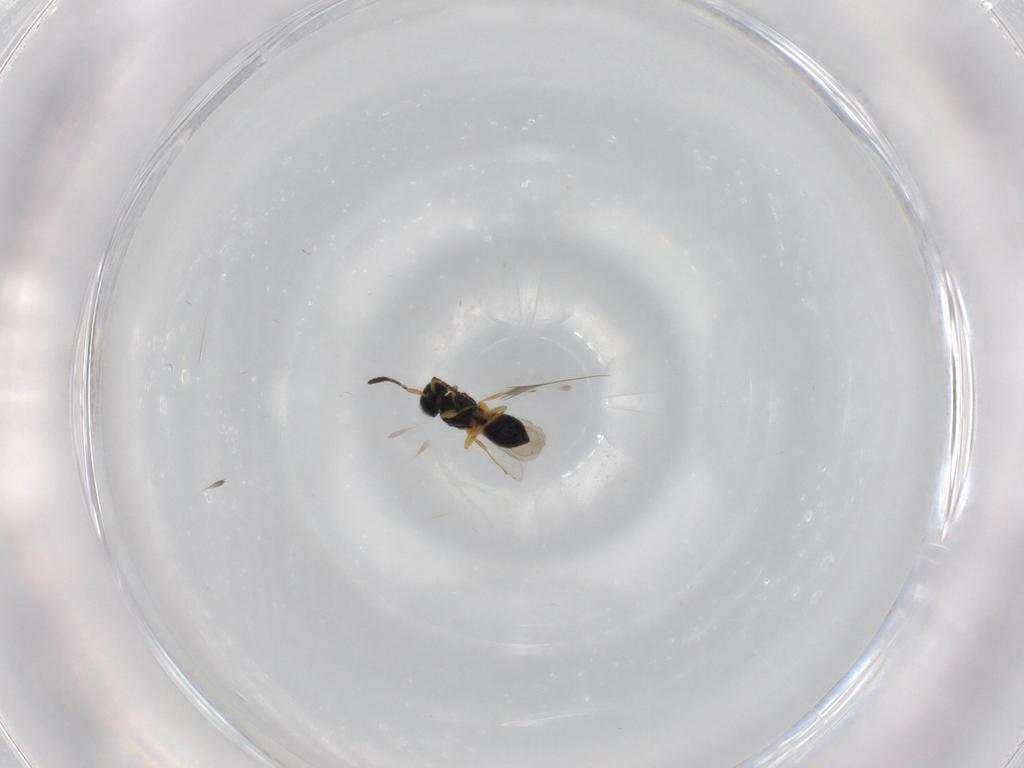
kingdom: Animalia
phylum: Arthropoda
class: Insecta
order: Hymenoptera
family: Scelionidae
